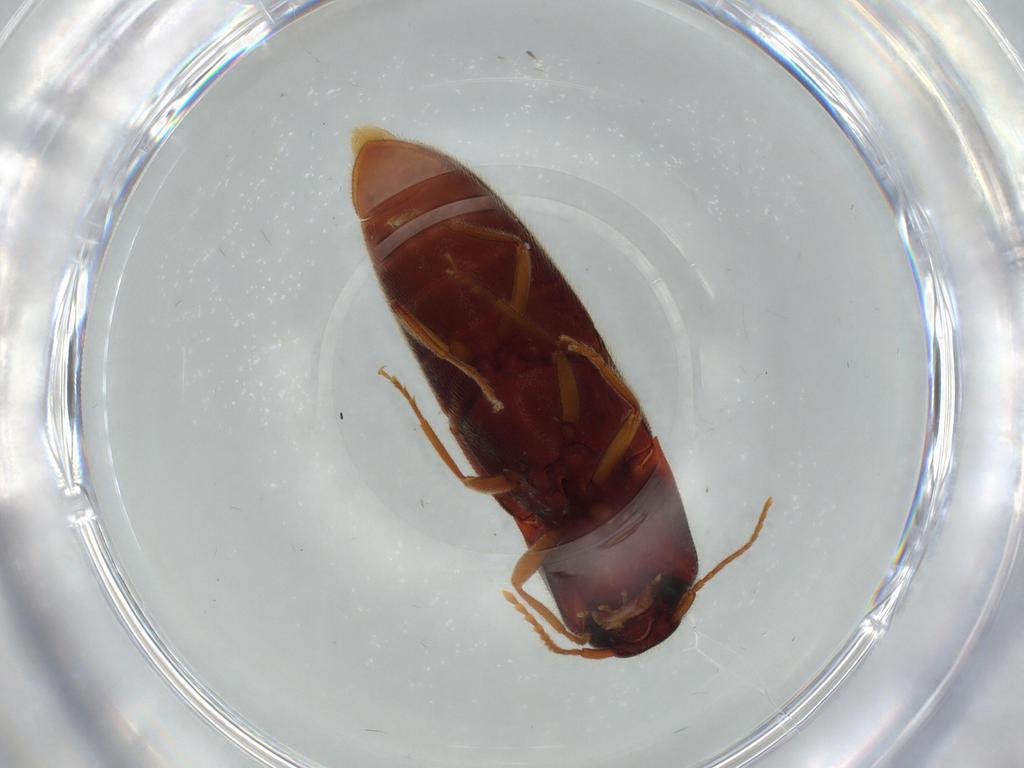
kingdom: Animalia
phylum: Arthropoda
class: Insecta
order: Coleoptera
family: Elateridae
